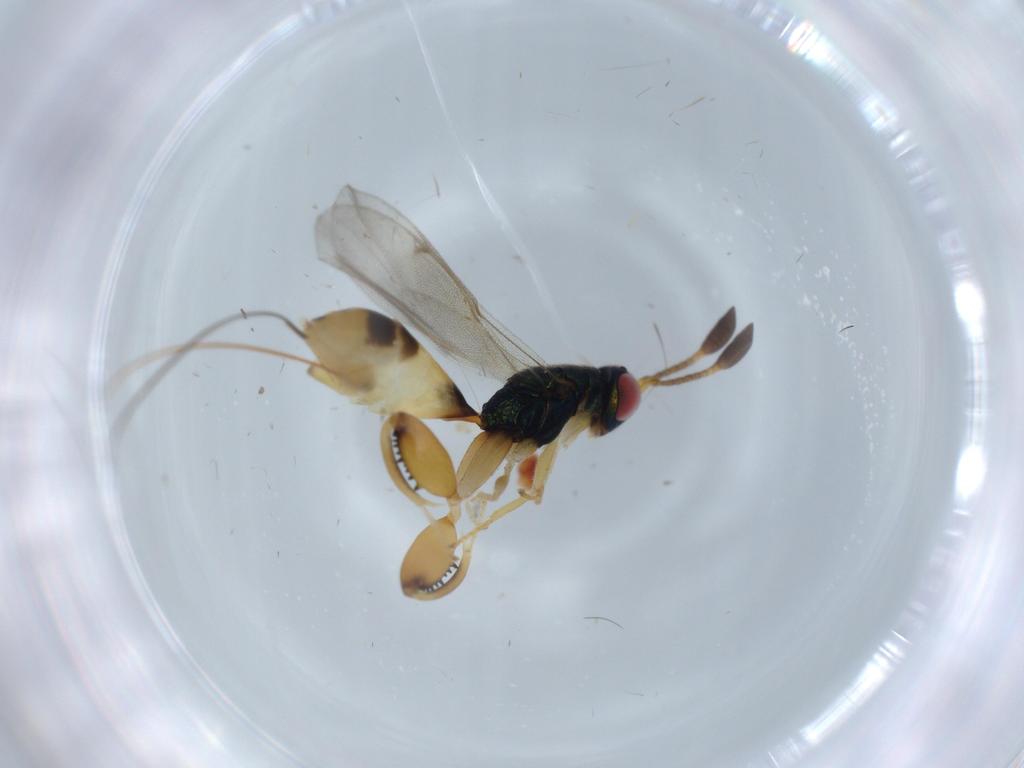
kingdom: Animalia
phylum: Arthropoda
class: Insecta
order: Hymenoptera
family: Torymidae
